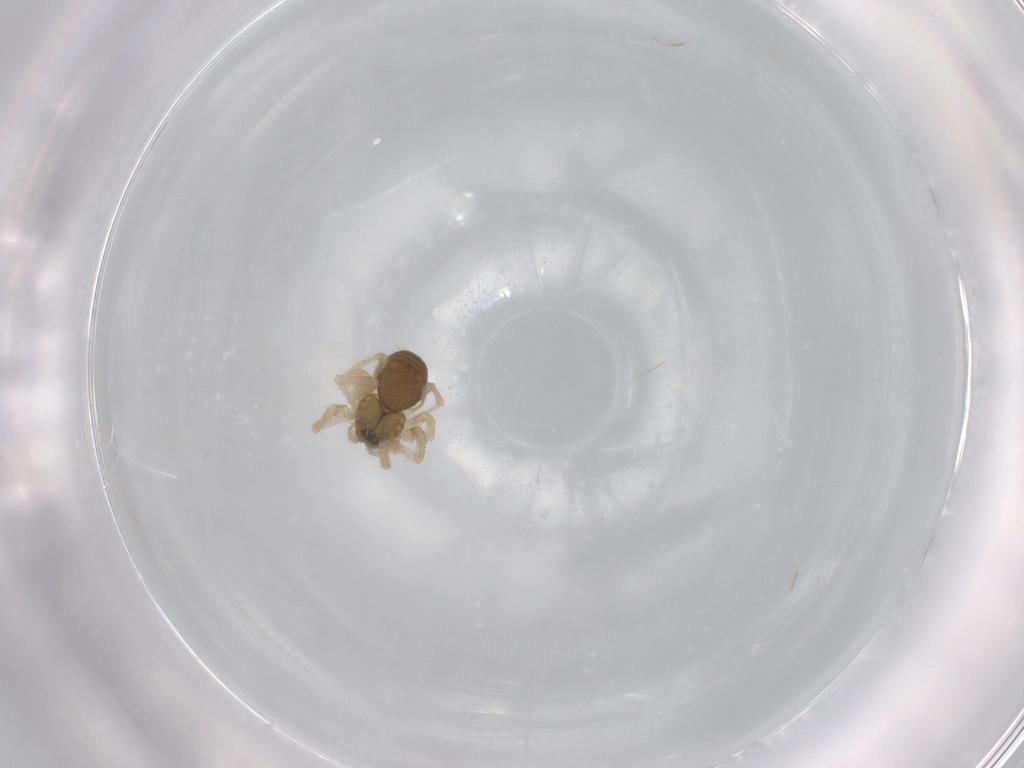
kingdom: Animalia
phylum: Arthropoda
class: Arachnida
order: Araneae
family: Linyphiidae
